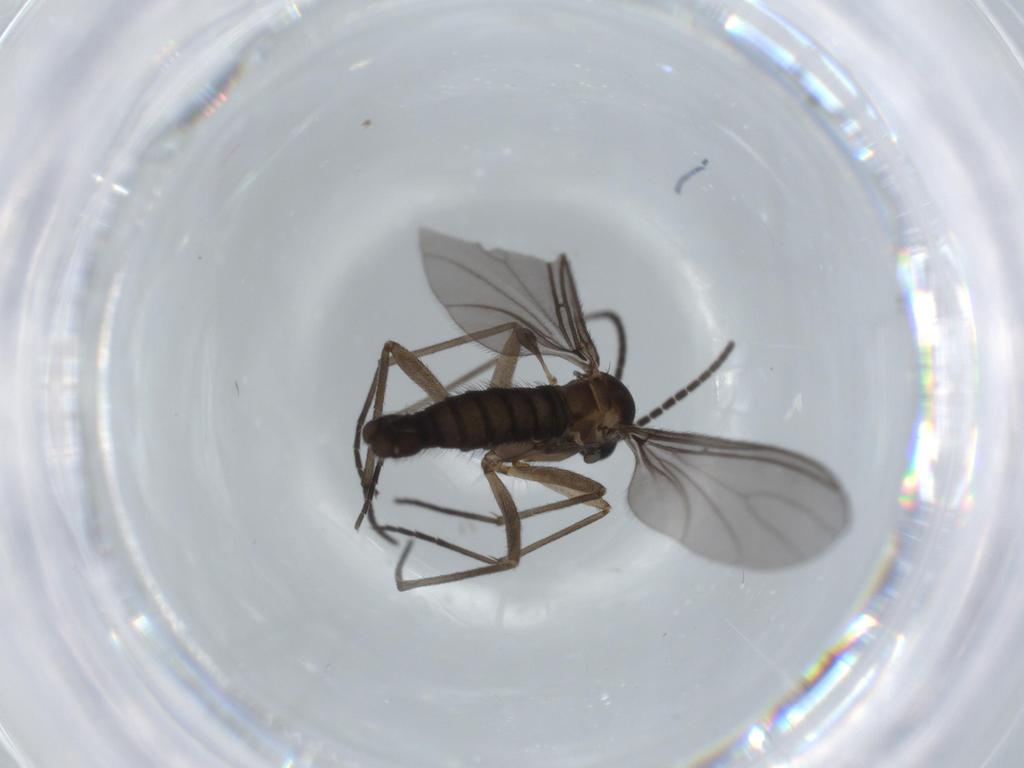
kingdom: Animalia
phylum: Arthropoda
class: Insecta
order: Diptera
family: Sciaridae
